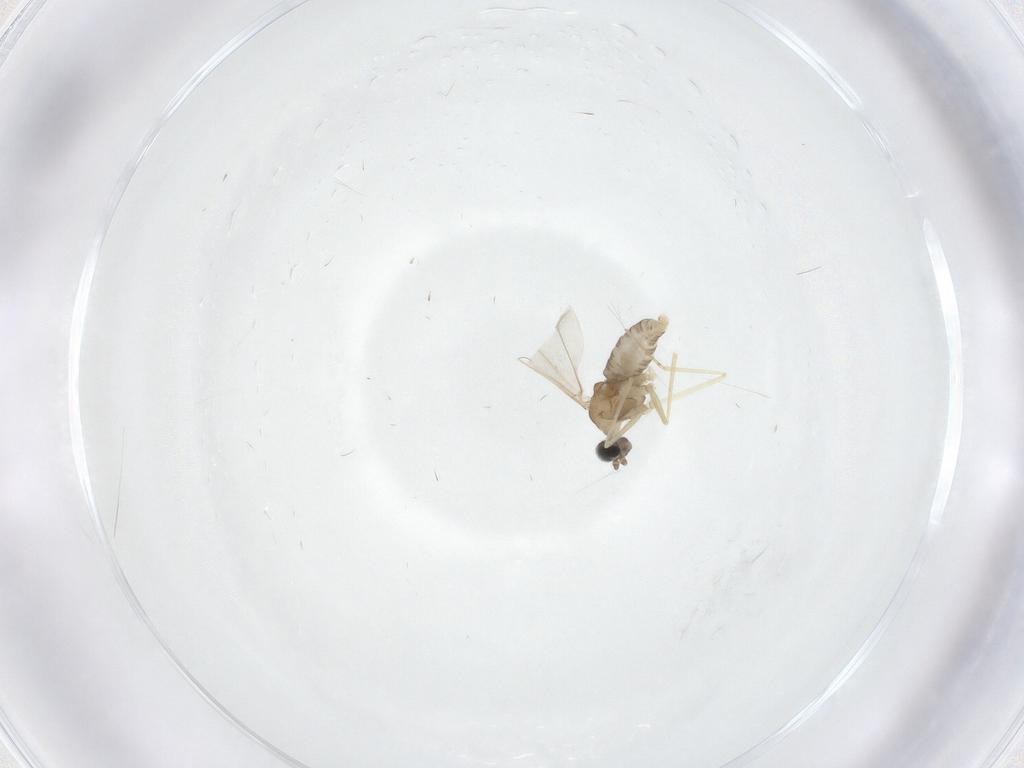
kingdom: Animalia
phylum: Arthropoda
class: Insecta
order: Diptera
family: Cecidomyiidae
